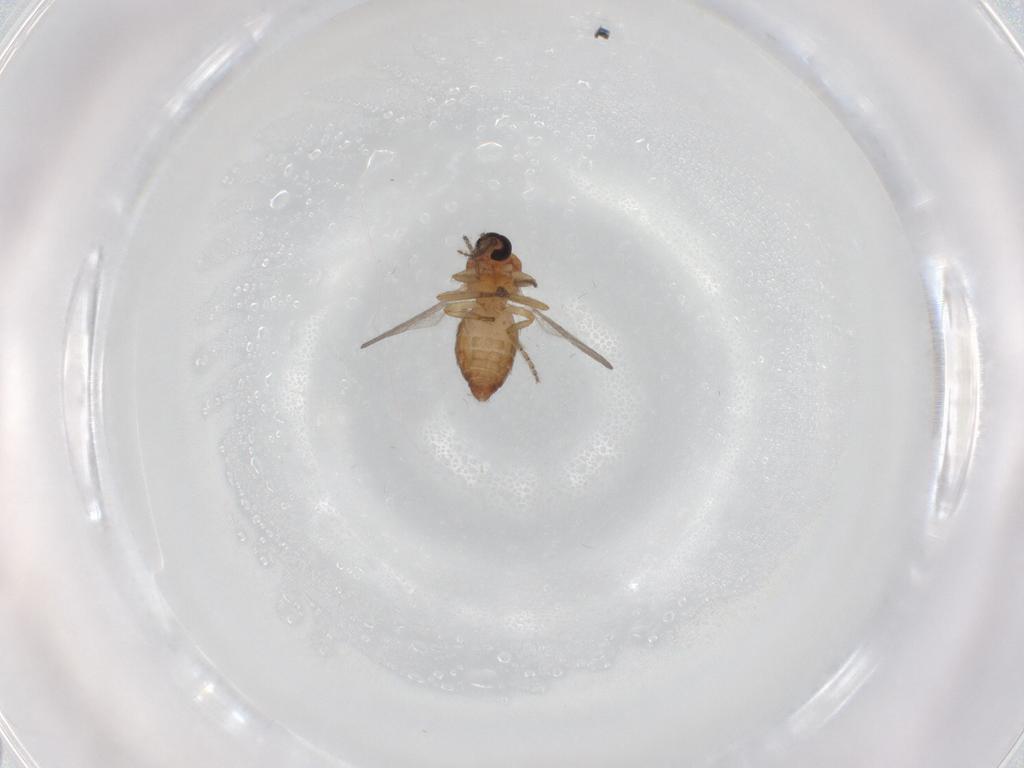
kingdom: Animalia
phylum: Arthropoda
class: Insecta
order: Diptera
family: Ceratopogonidae
